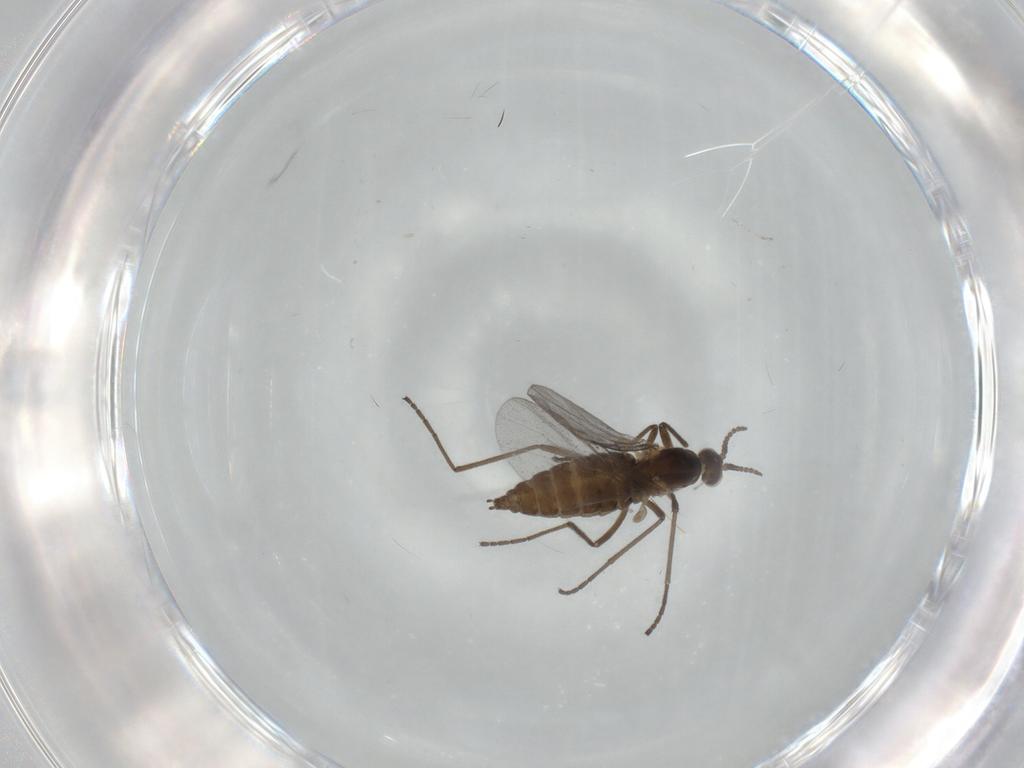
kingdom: Animalia
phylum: Arthropoda
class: Insecta
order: Diptera
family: Cecidomyiidae
